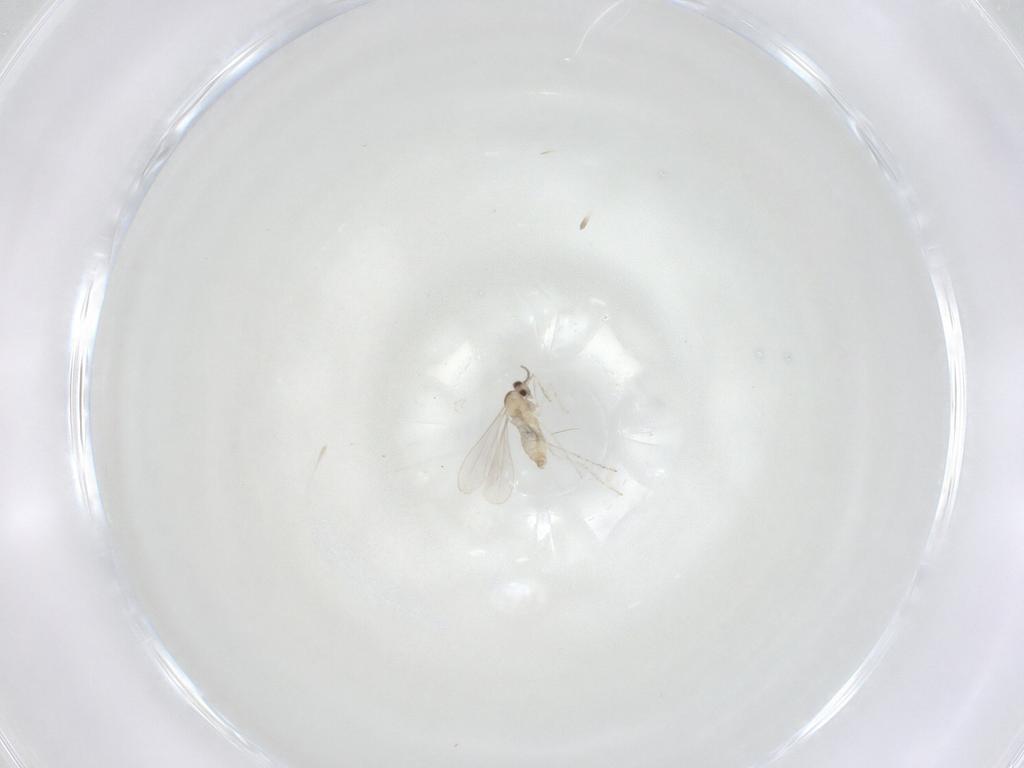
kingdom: Animalia
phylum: Arthropoda
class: Insecta
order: Diptera
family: Cecidomyiidae
